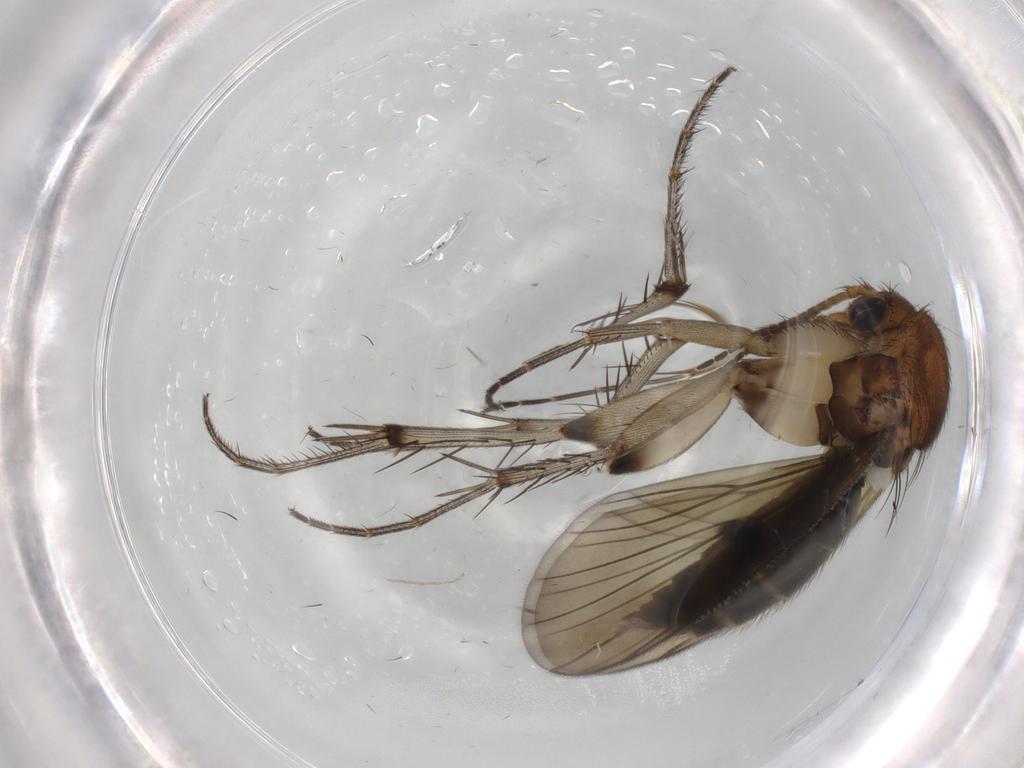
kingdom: Animalia
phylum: Arthropoda
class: Insecta
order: Diptera
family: Mycetophilidae
